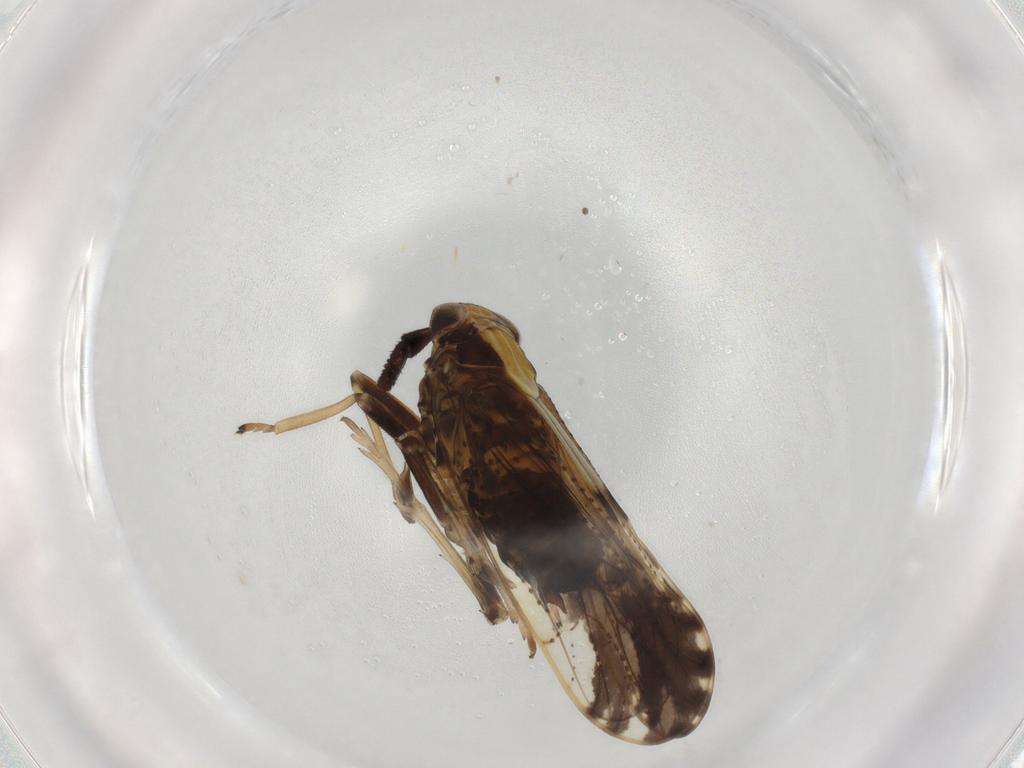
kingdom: Animalia
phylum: Arthropoda
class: Insecta
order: Hemiptera
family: Delphacidae
